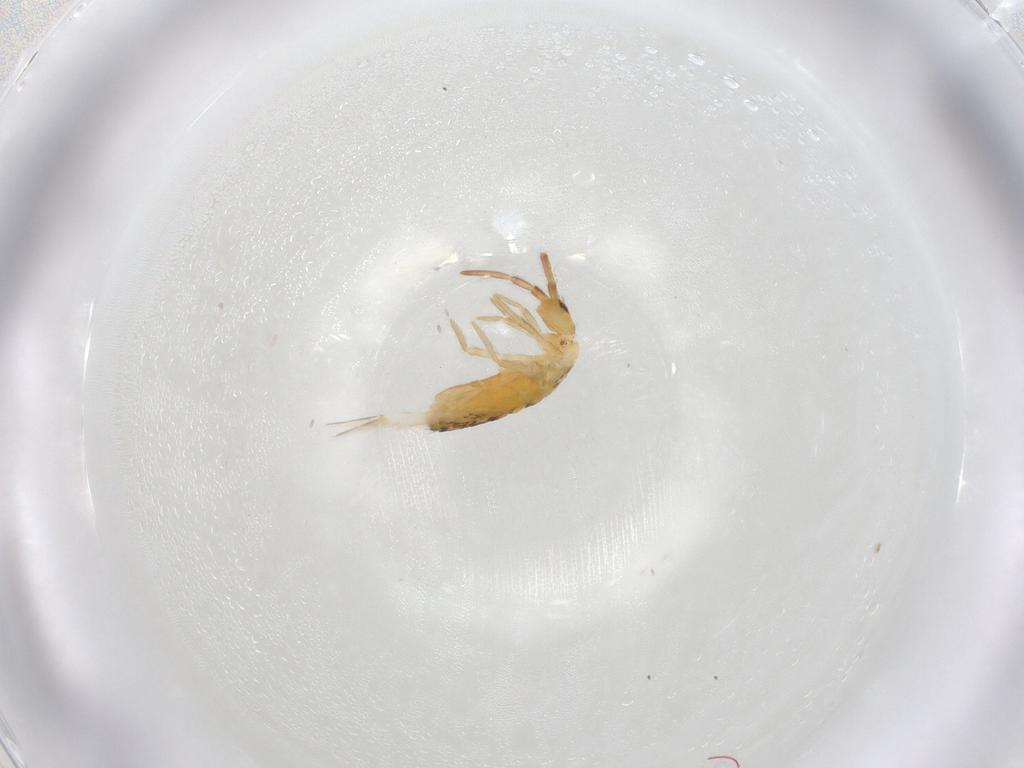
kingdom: Animalia
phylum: Arthropoda
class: Collembola
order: Entomobryomorpha
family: Entomobryidae
